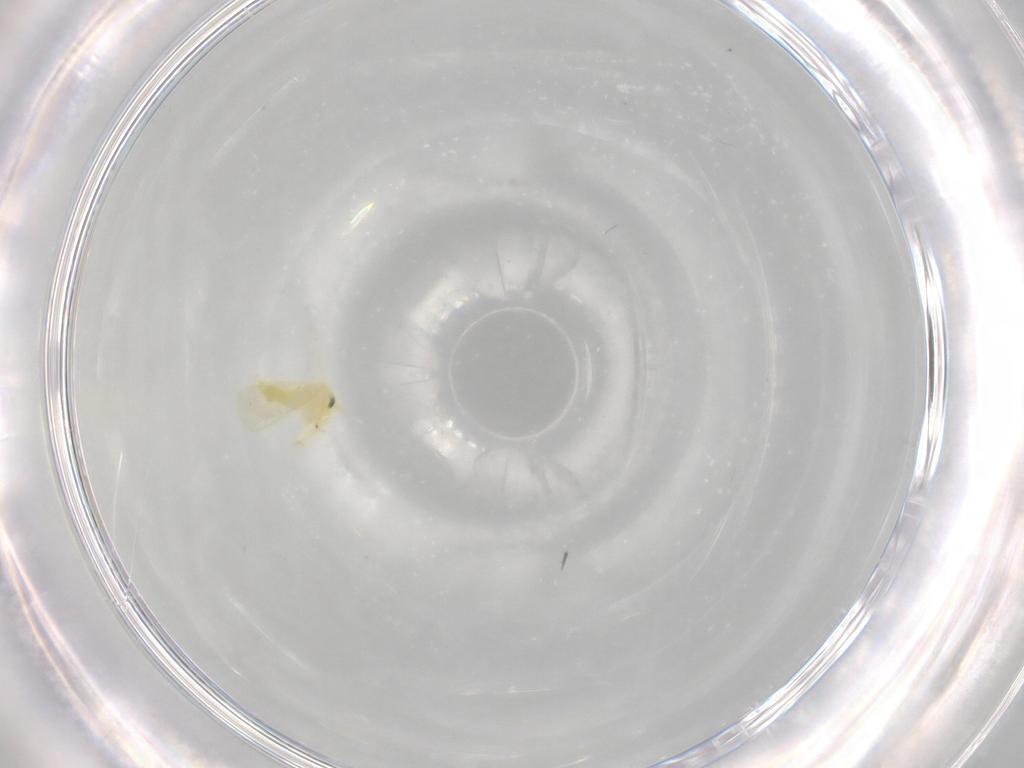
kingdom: Animalia
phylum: Arthropoda
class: Insecta
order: Hemiptera
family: Aleyrodidae
